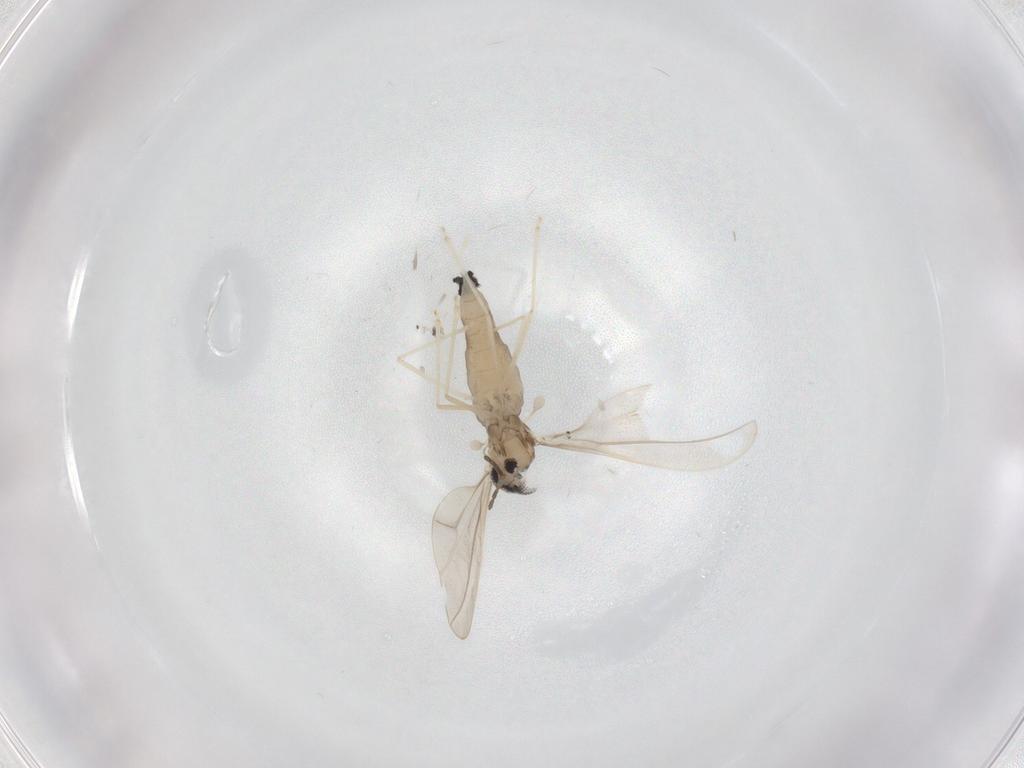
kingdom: Animalia
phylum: Arthropoda
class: Insecta
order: Diptera
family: Cecidomyiidae
